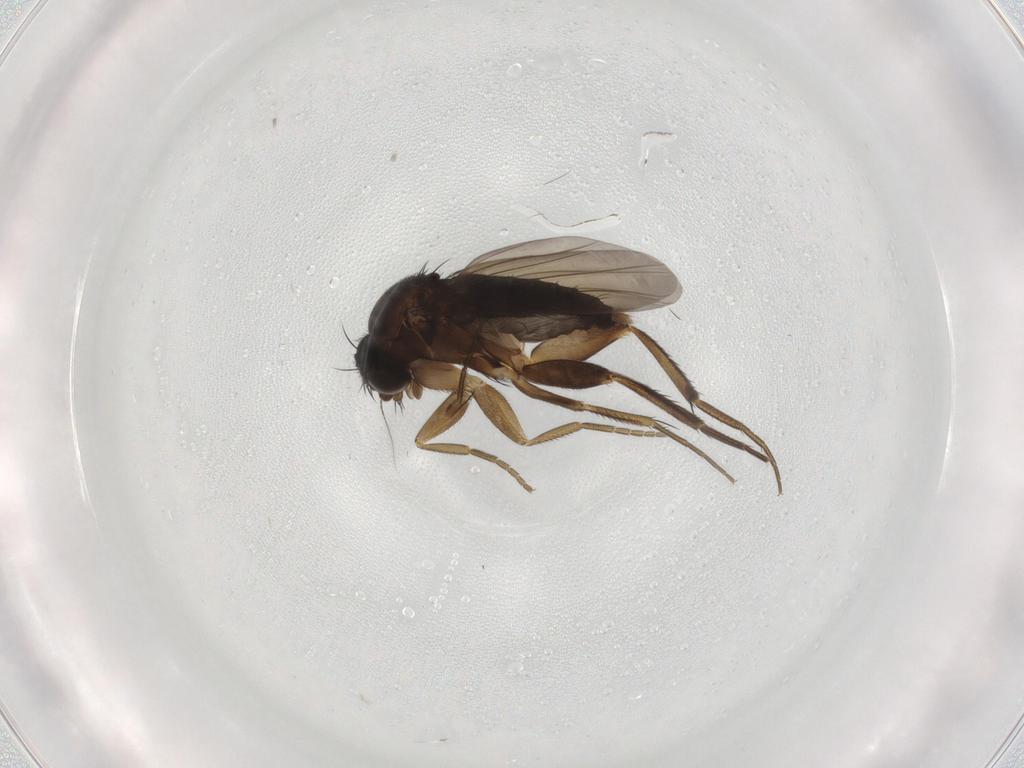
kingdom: Animalia
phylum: Arthropoda
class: Insecta
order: Diptera
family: Phoridae
